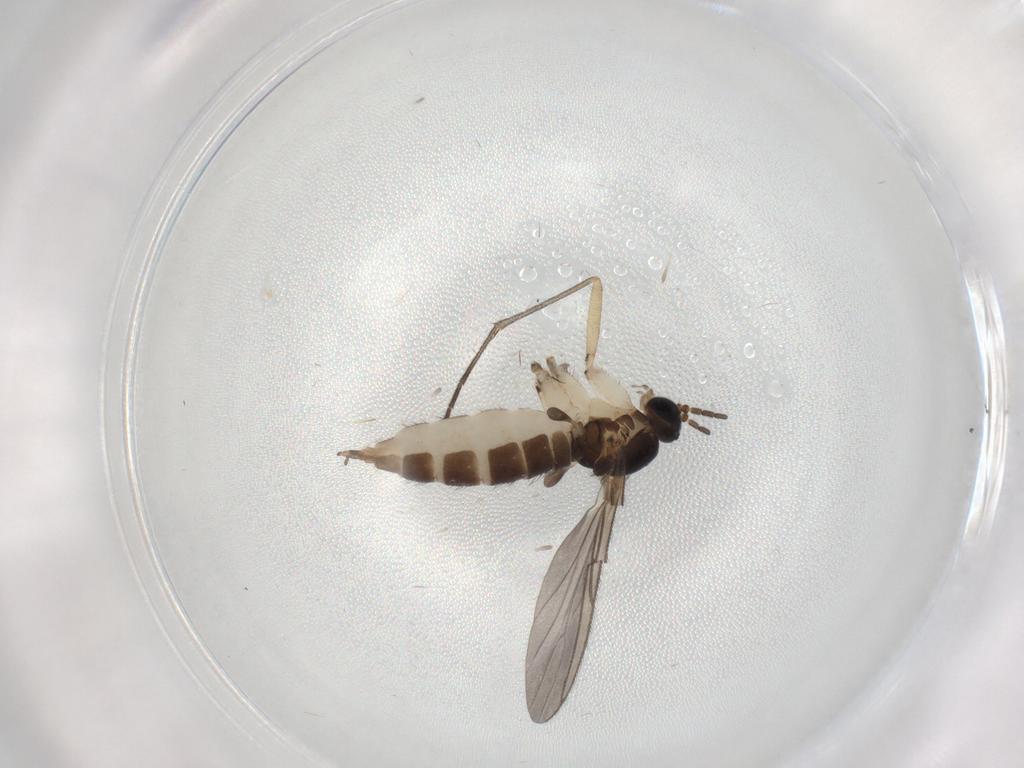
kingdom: Animalia
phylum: Arthropoda
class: Insecta
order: Diptera
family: Sciaridae
